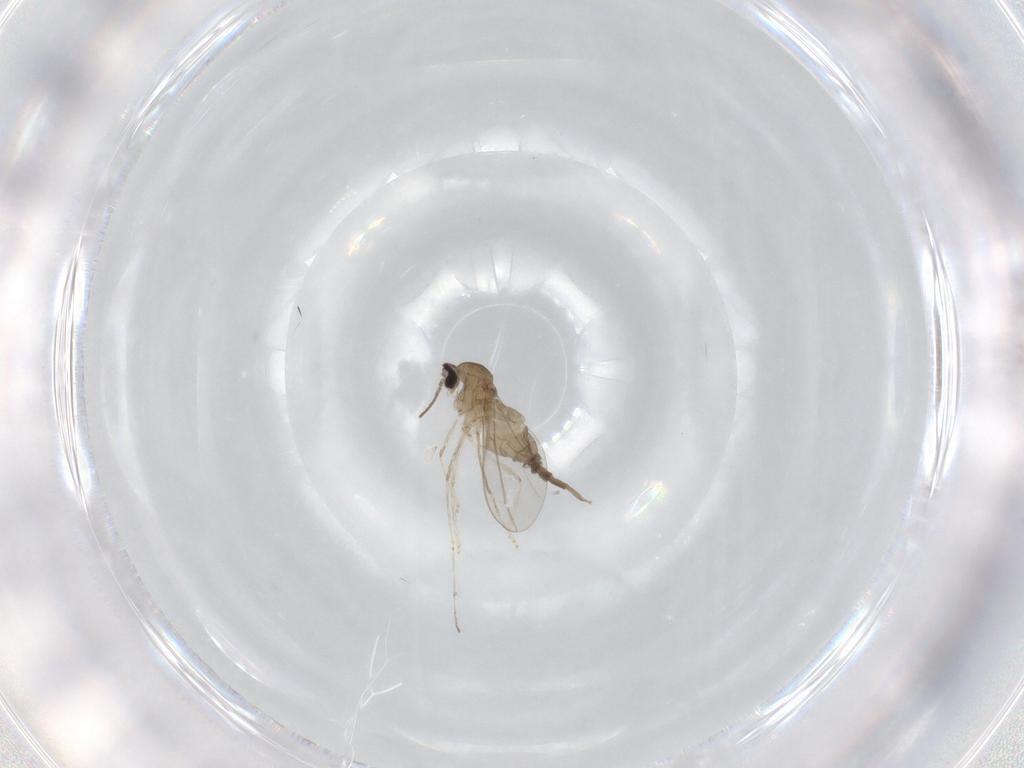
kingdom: Animalia
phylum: Arthropoda
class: Insecta
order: Diptera
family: Cecidomyiidae
